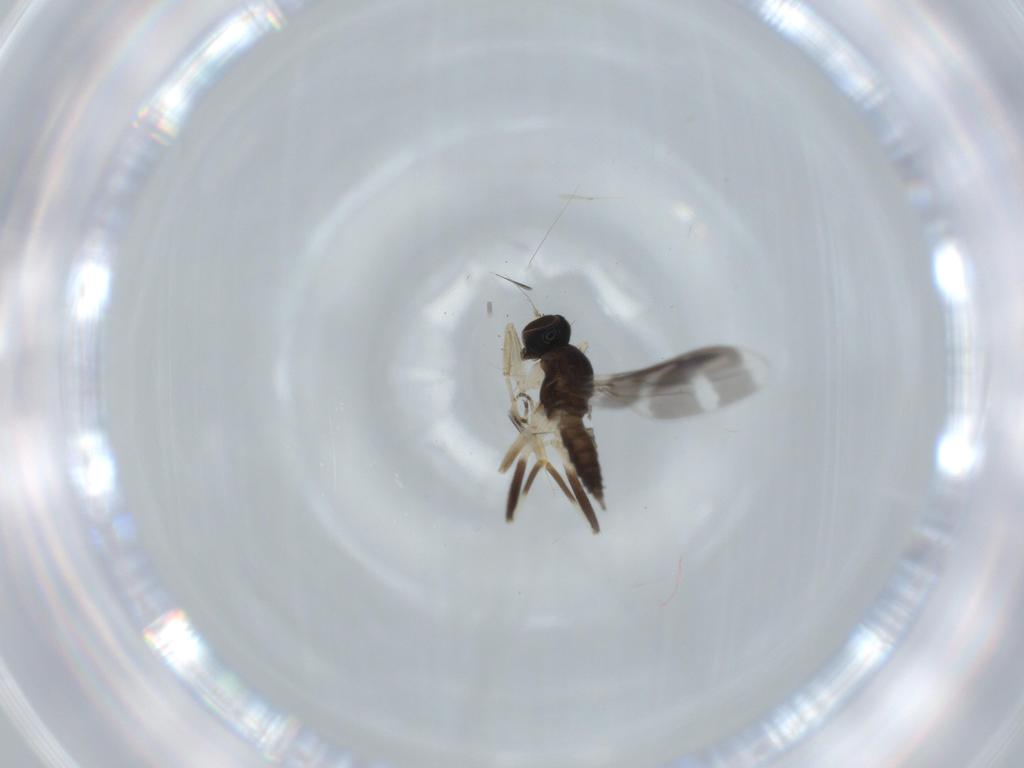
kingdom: Animalia
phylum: Arthropoda
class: Insecta
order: Diptera
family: Hybotidae
